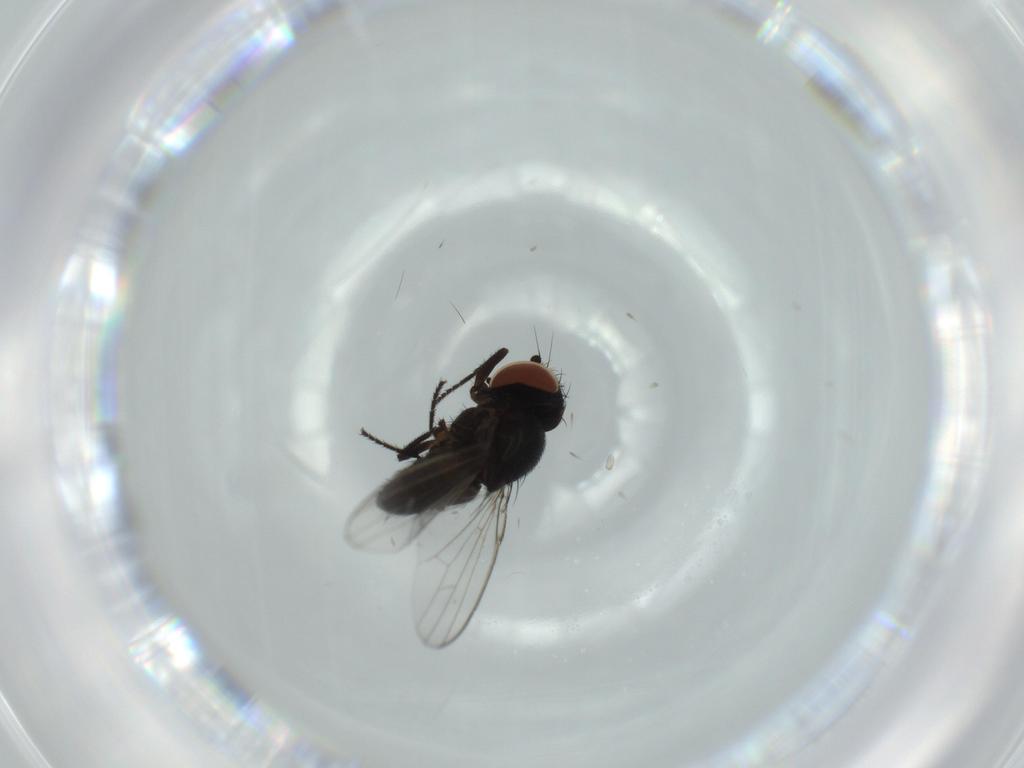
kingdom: Animalia
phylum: Arthropoda
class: Insecta
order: Diptera
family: Milichiidae
